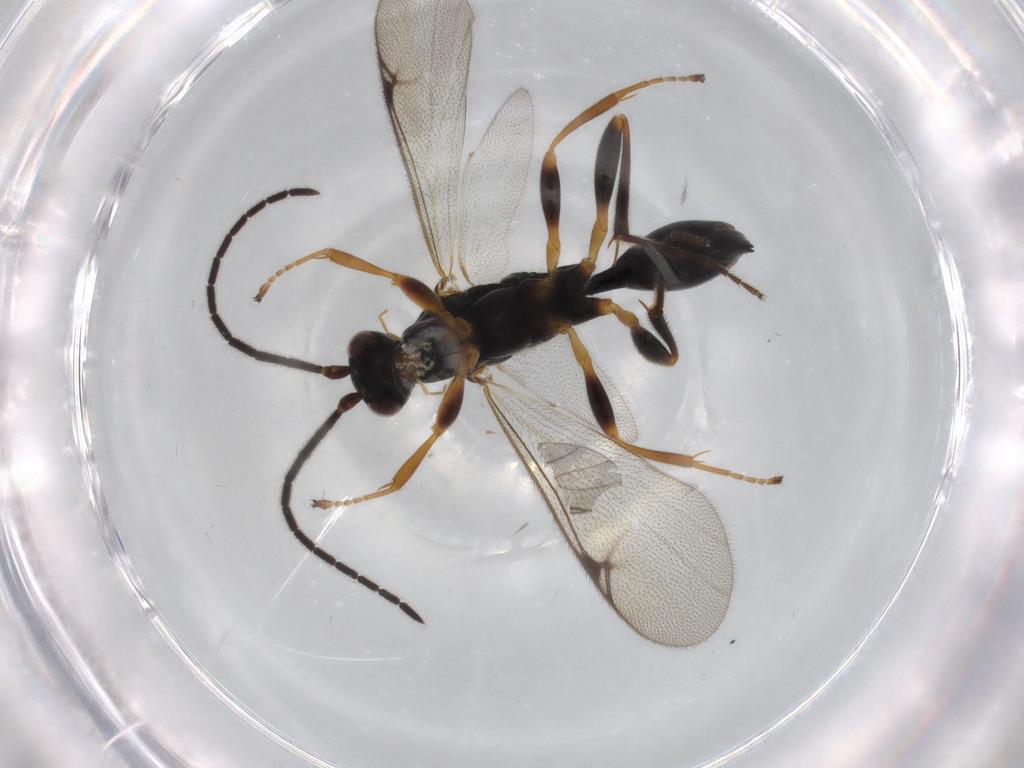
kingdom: Animalia
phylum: Arthropoda
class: Insecta
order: Hymenoptera
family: Proctotrupidae
